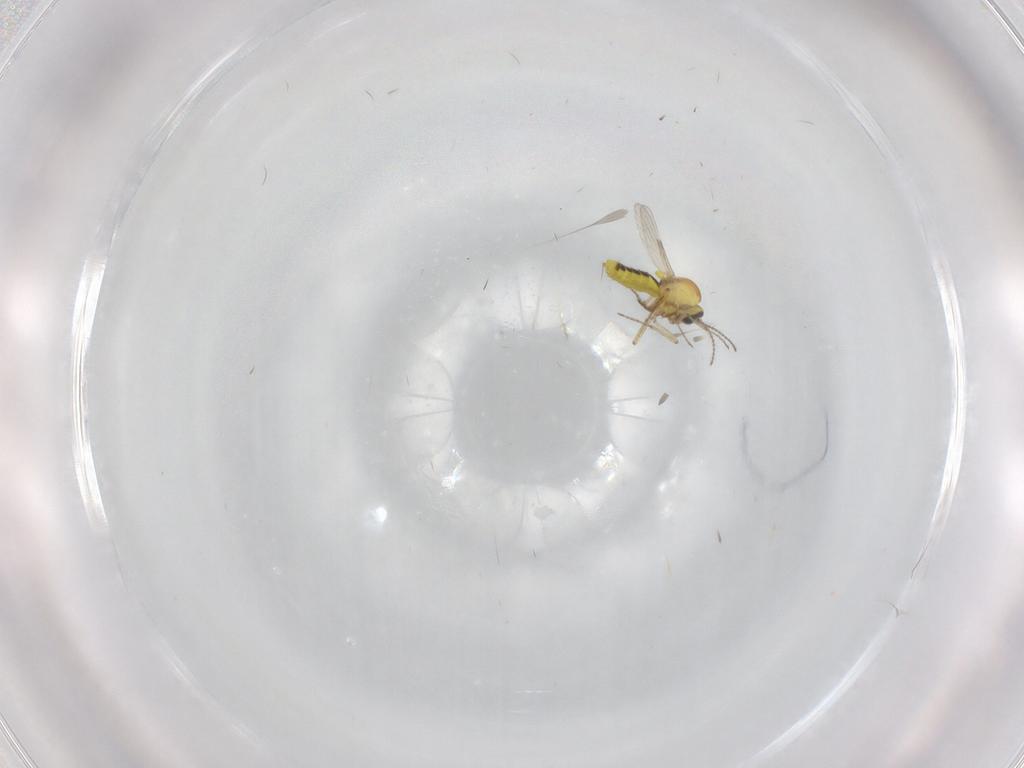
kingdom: Animalia
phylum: Arthropoda
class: Insecta
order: Diptera
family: Ceratopogonidae
